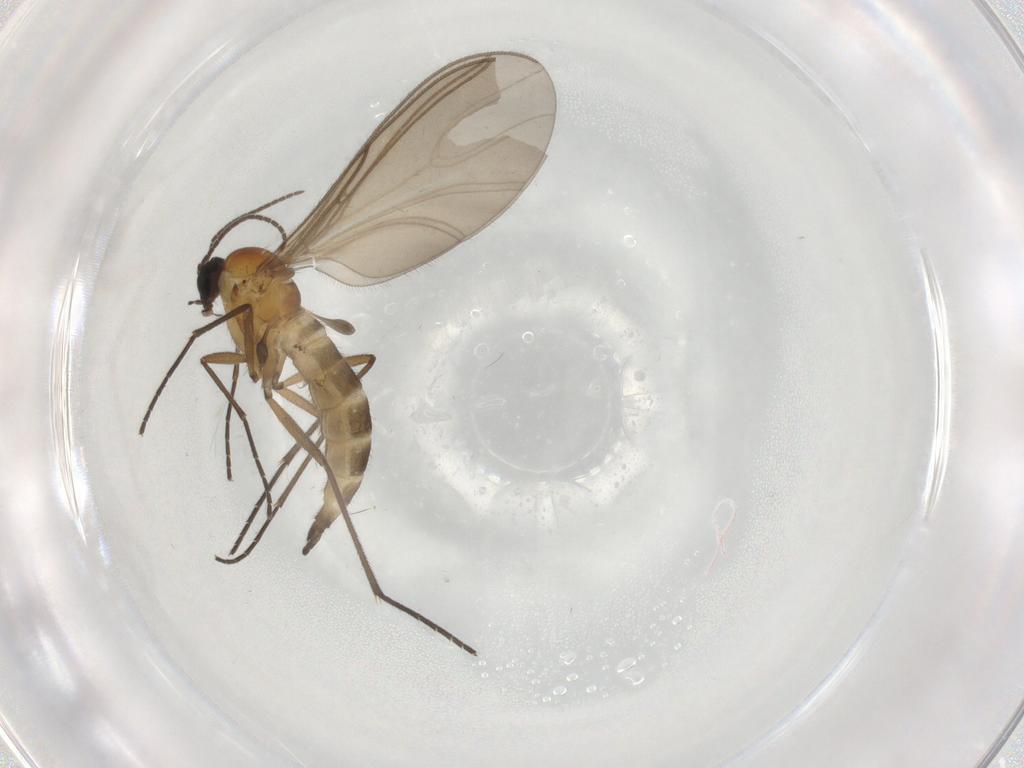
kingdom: Animalia
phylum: Arthropoda
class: Insecta
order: Diptera
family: Sciaridae
